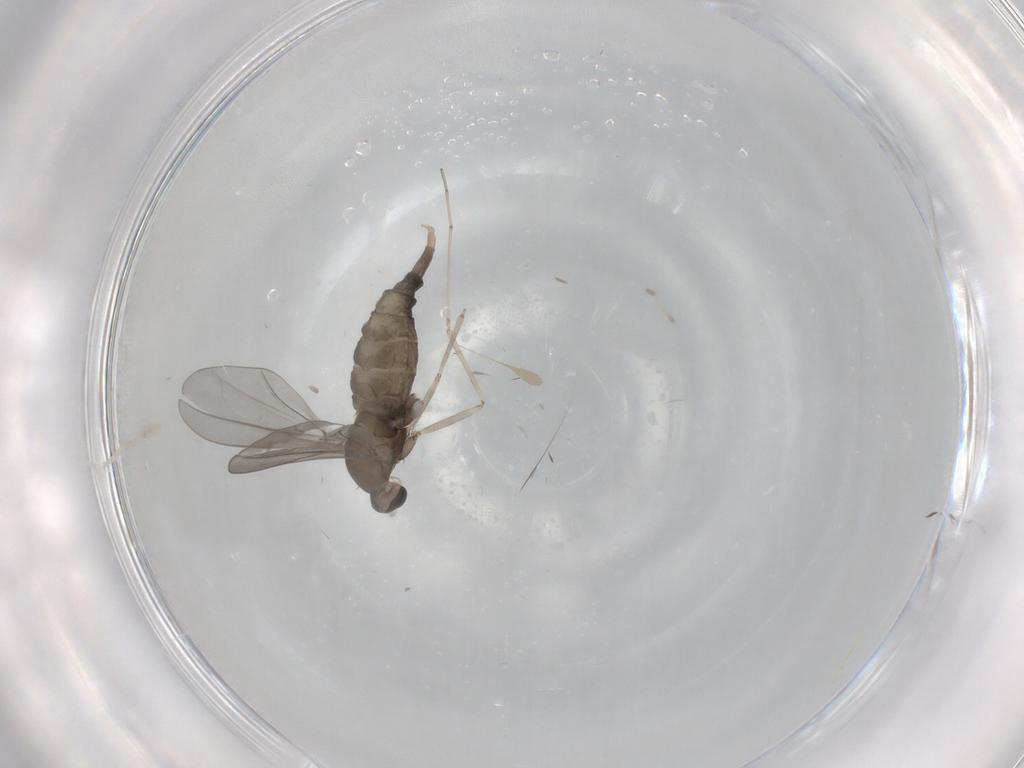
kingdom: Animalia
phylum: Arthropoda
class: Insecta
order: Diptera
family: Cecidomyiidae
